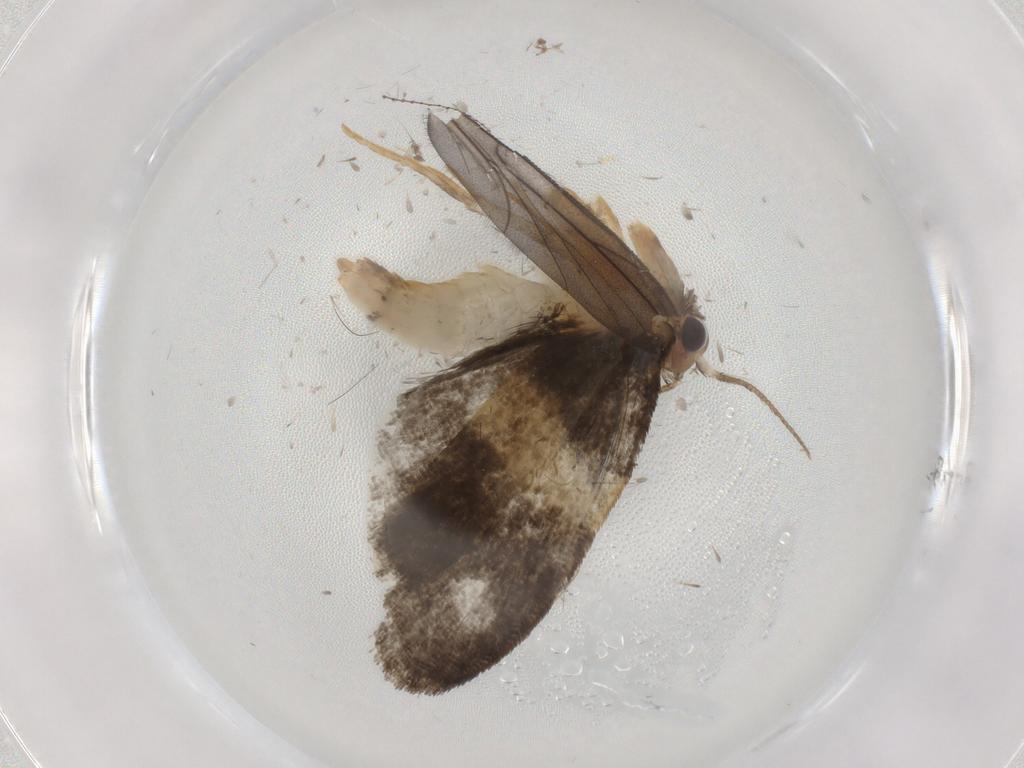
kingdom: Animalia
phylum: Arthropoda
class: Insecta
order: Lepidoptera
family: Psychidae
